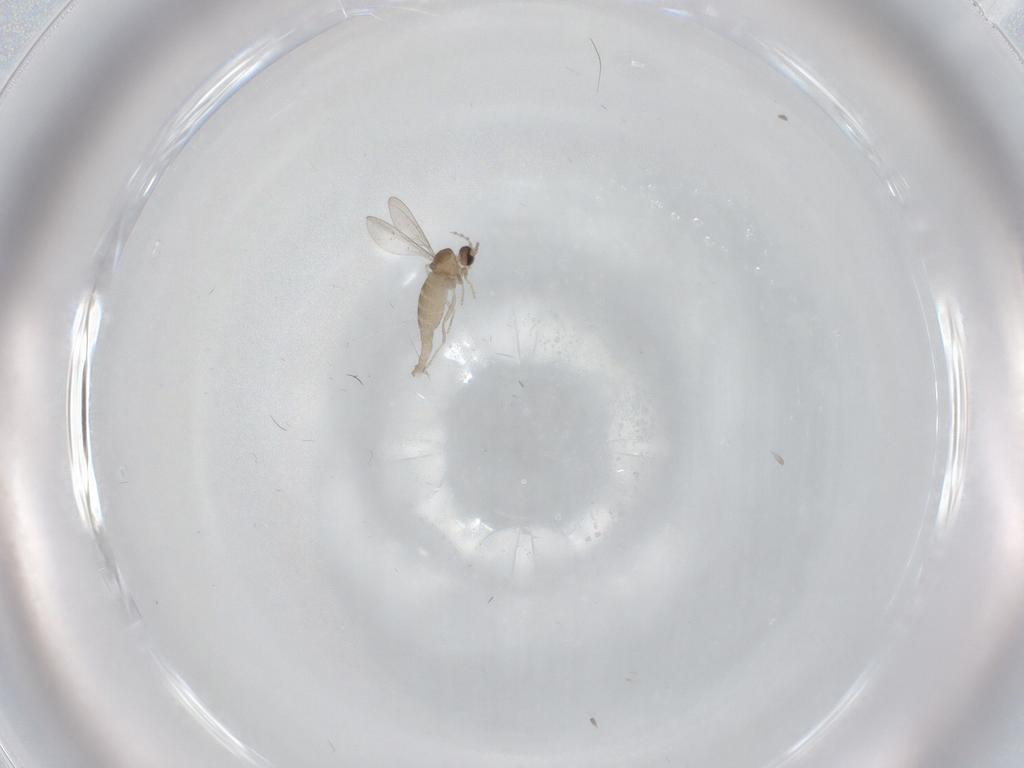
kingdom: Animalia
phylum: Arthropoda
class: Insecta
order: Diptera
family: Cecidomyiidae
